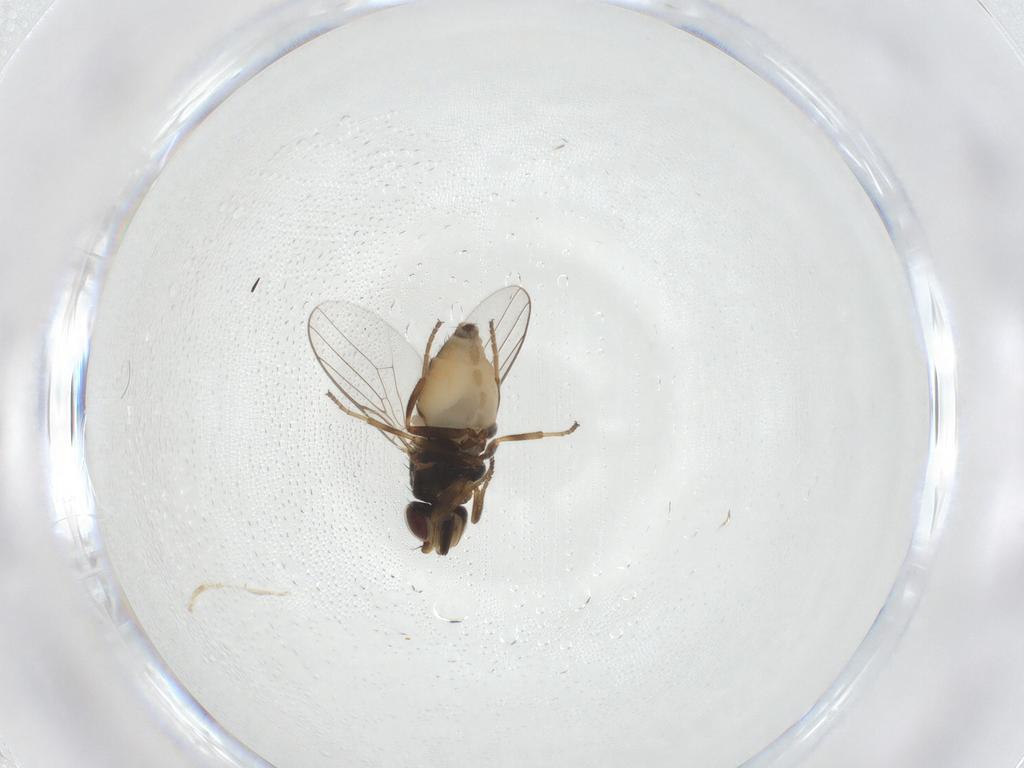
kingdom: Animalia
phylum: Arthropoda
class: Insecta
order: Diptera
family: Chloropidae
